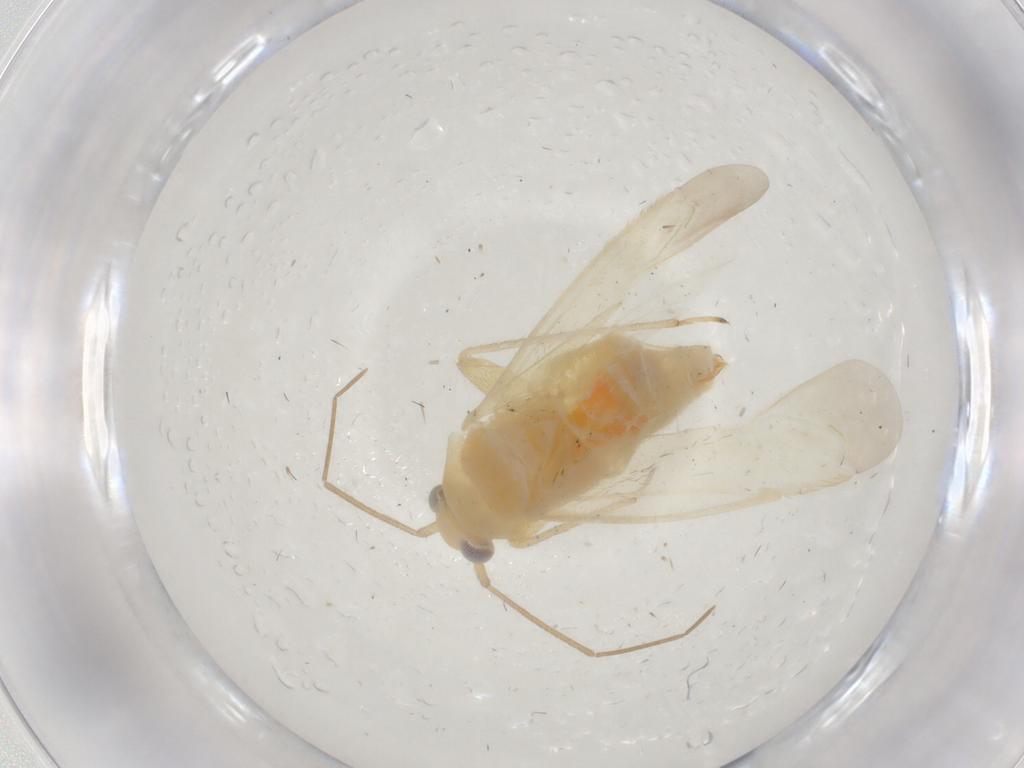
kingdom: Animalia
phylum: Arthropoda
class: Insecta
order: Hemiptera
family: Miridae
